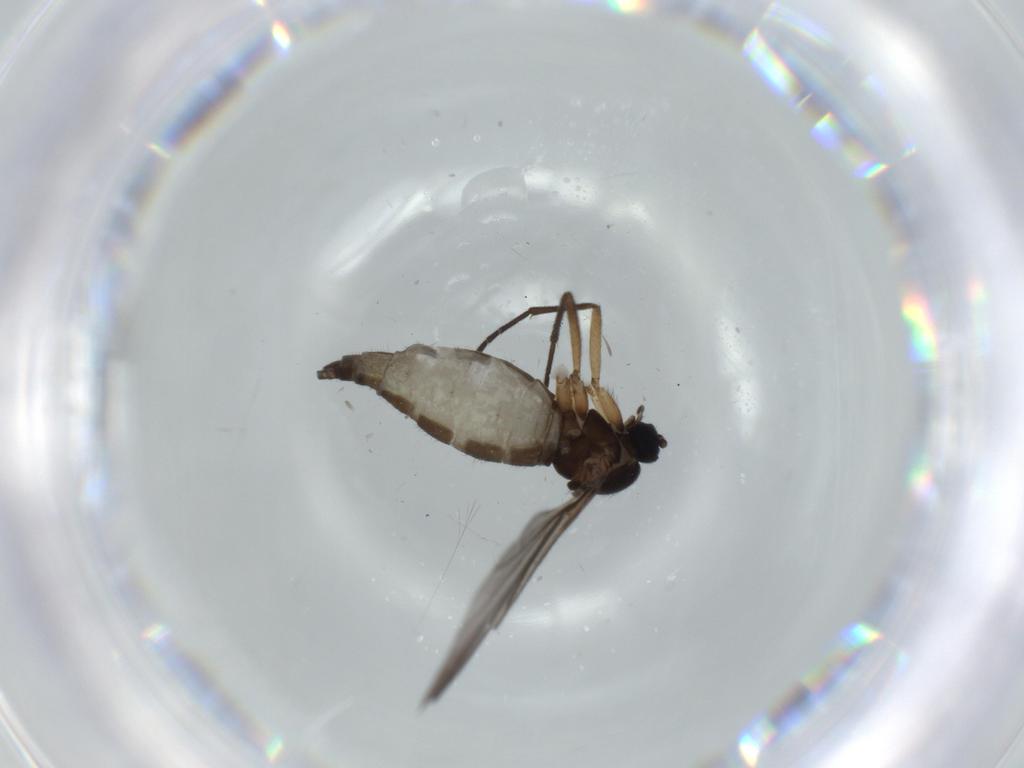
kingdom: Animalia
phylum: Arthropoda
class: Insecta
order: Diptera
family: Sciaridae
